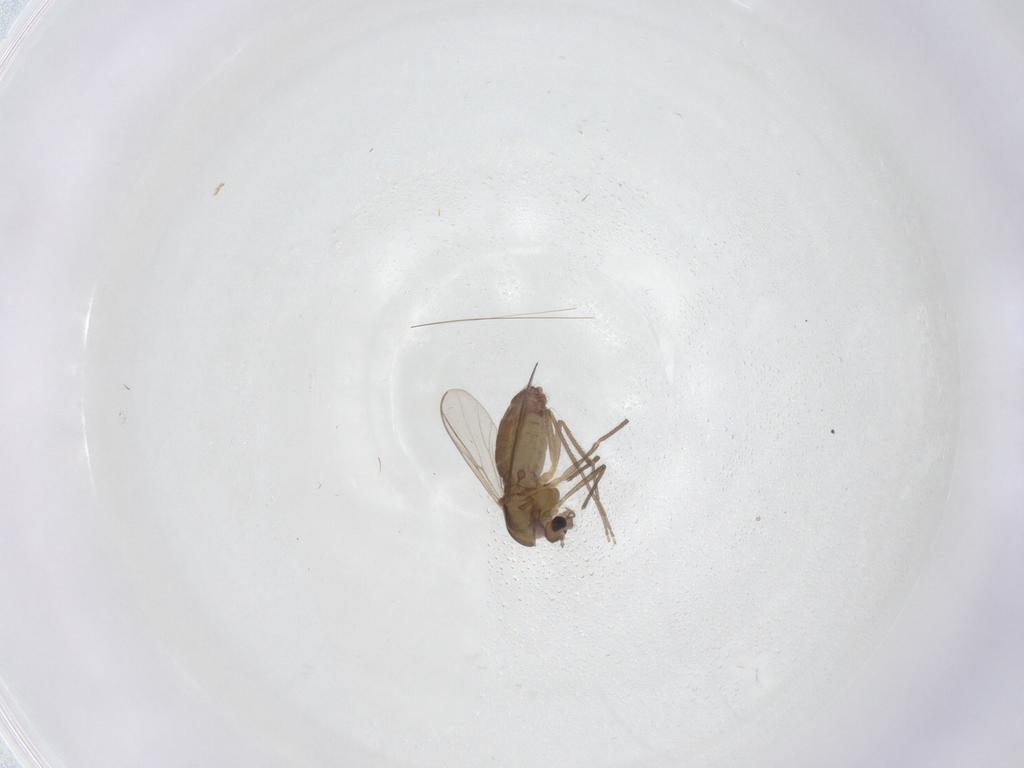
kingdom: Animalia
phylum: Arthropoda
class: Insecta
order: Diptera
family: Chironomidae
